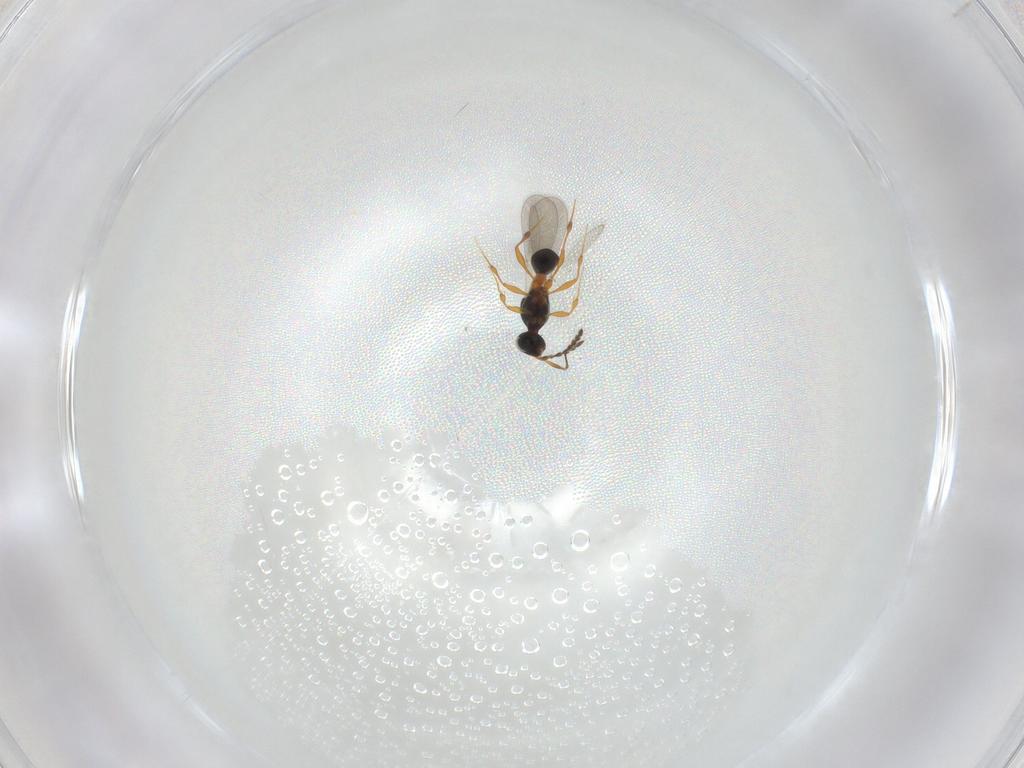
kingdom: Animalia
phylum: Arthropoda
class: Insecta
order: Hymenoptera
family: Platygastridae
